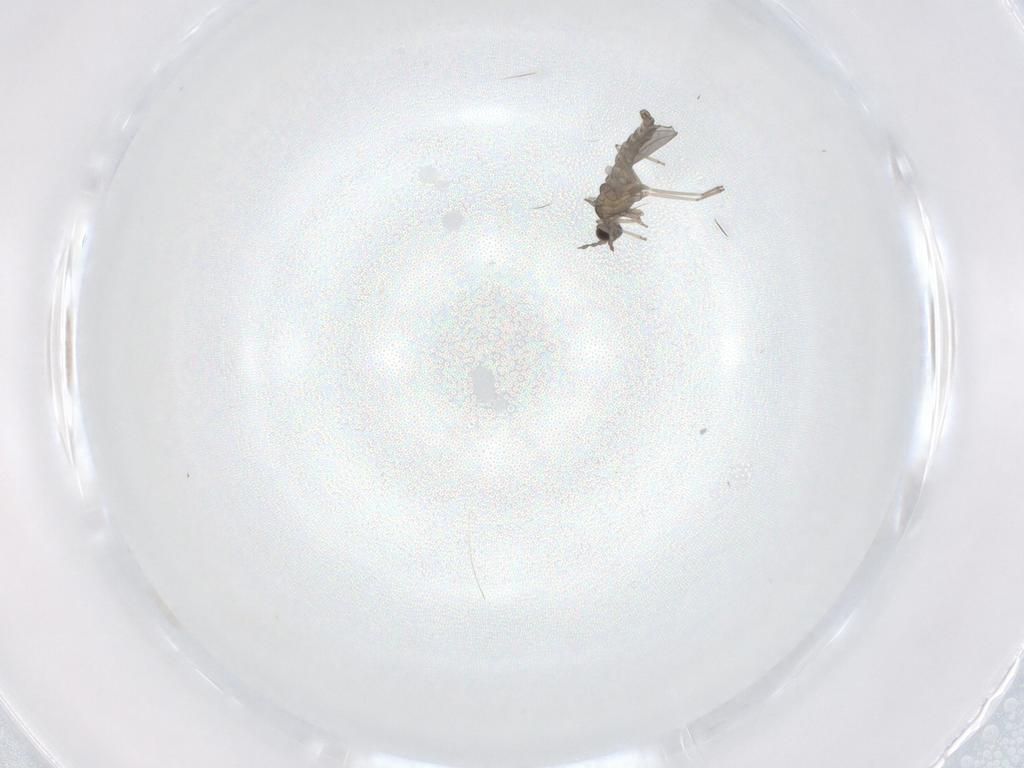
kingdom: Animalia
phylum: Arthropoda
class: Insecta
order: Diptera
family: Cecidomyiidae
